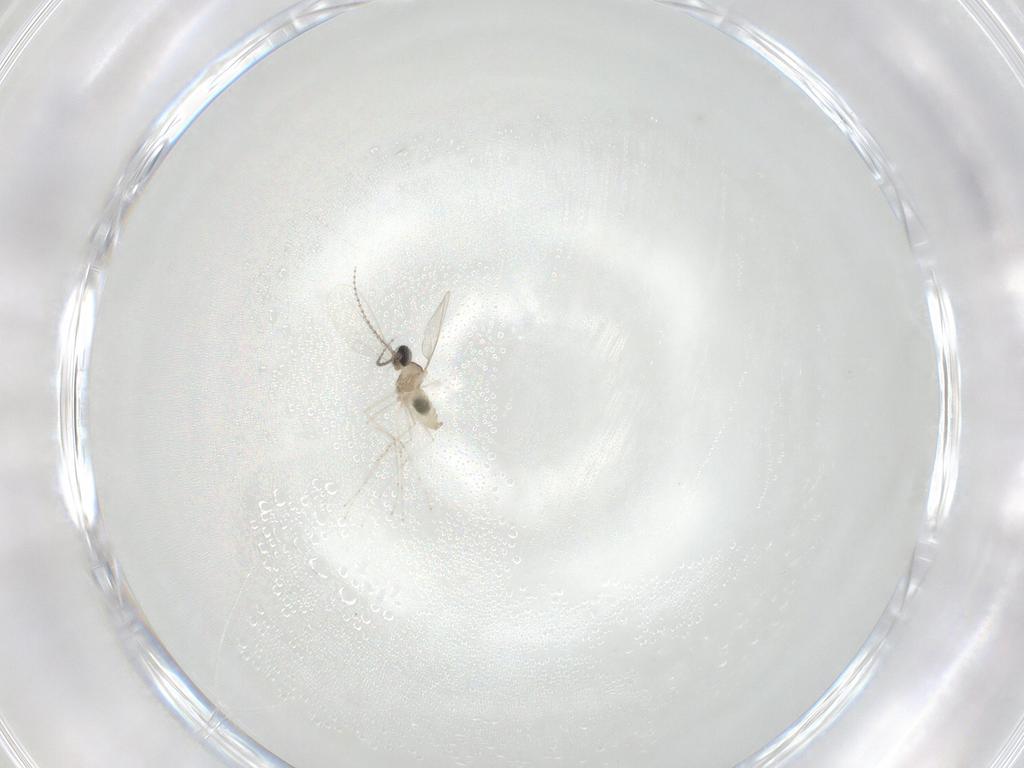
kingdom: Animalia
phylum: Arthropoda
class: Insecta
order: Diptera
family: Cecidomyiidae
